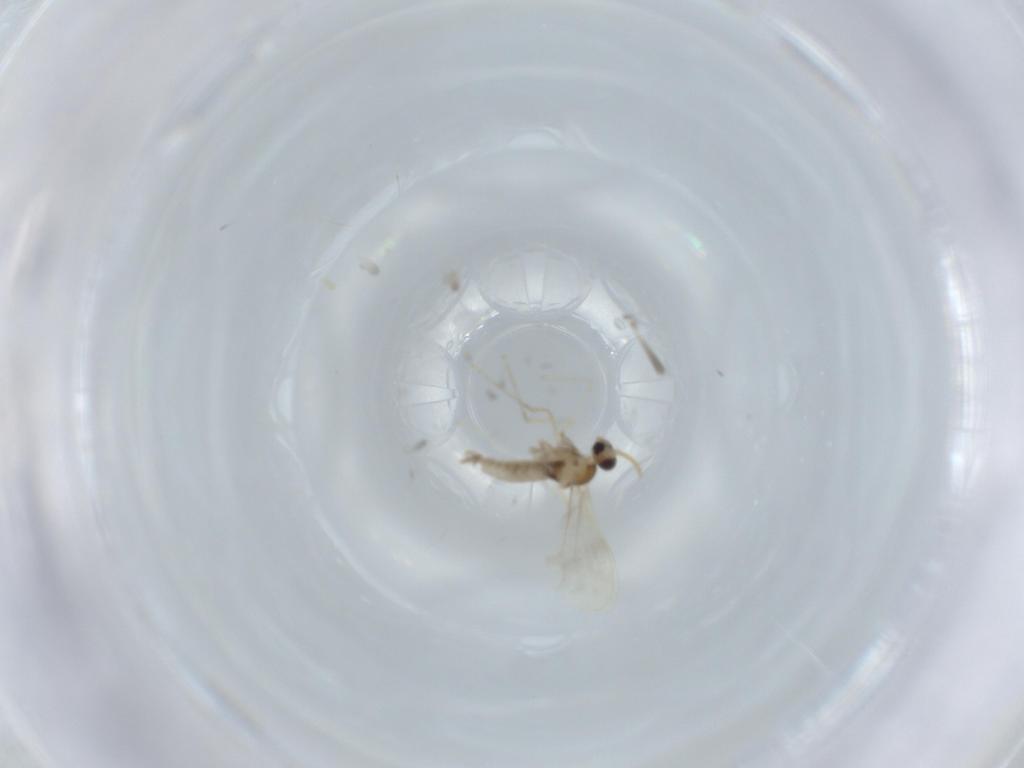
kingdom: Animalia
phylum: Arthropoda
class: Insecta
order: Diptera
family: Cecidomyiidae
